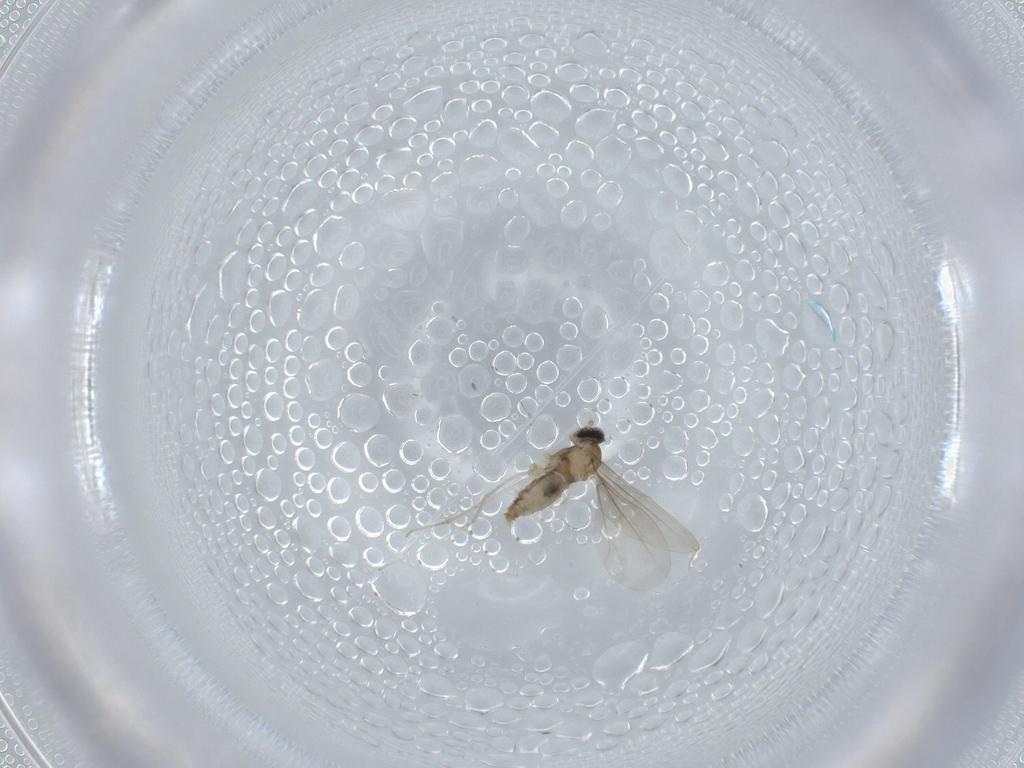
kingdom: Animalia
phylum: Arthropoda
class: Insecta
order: Diptera
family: Cecidomyiidae
